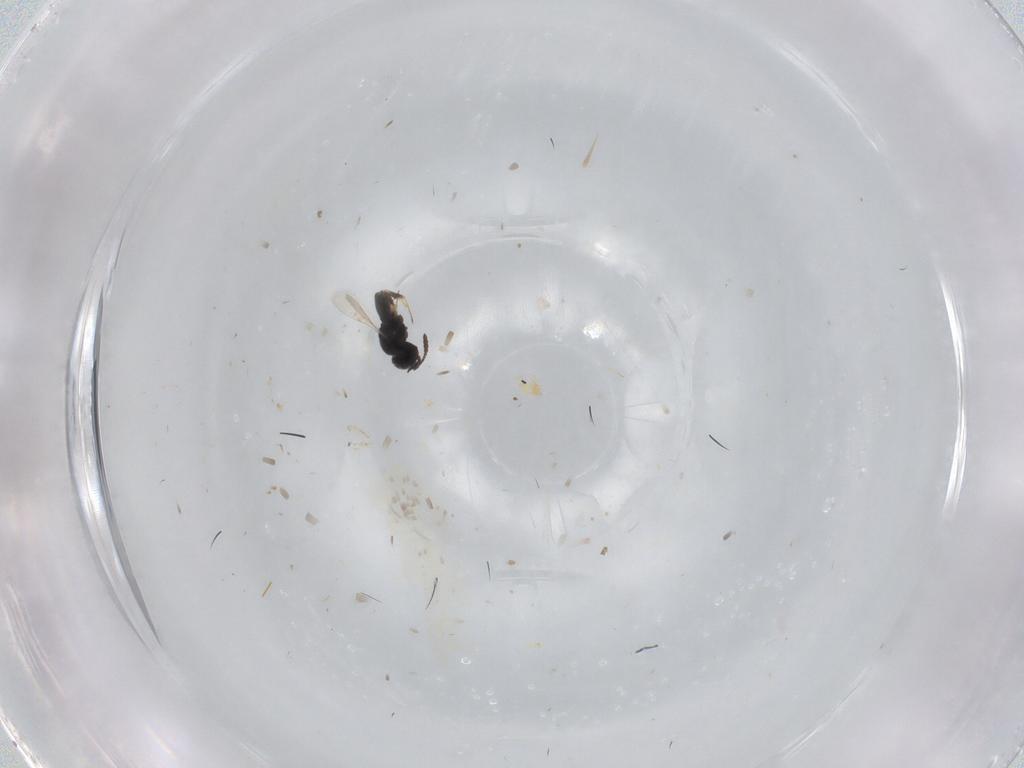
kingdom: Animalia
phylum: Arthropoda
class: Insecta
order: Hymenoptera
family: Scelionidae
